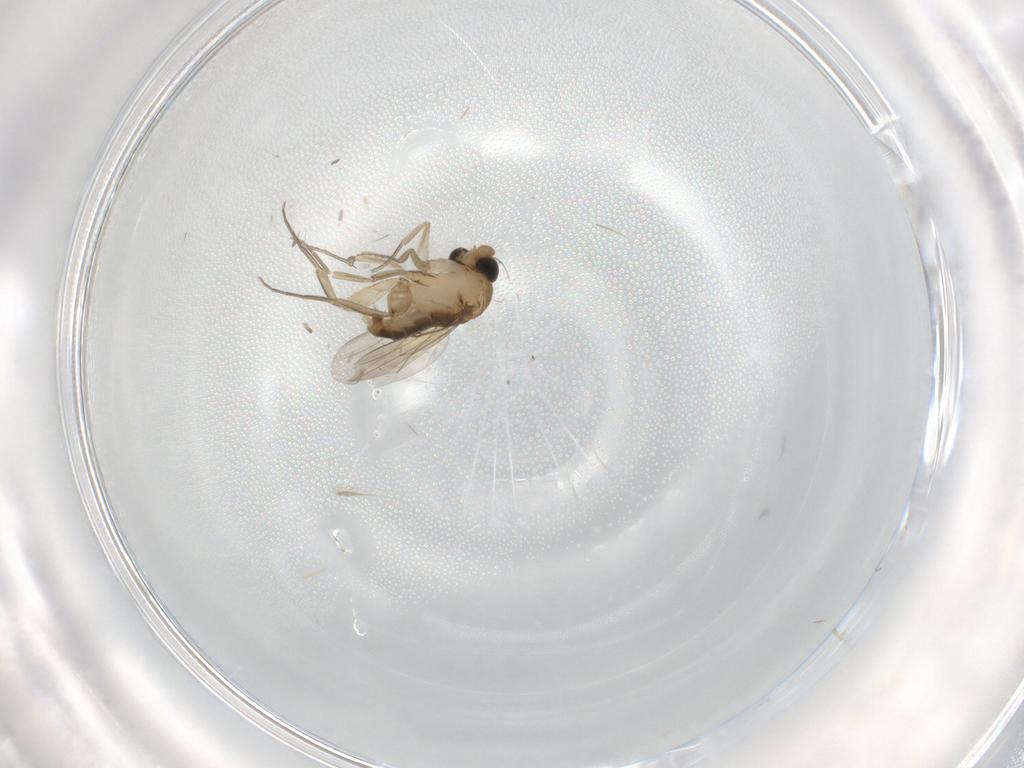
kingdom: Animalia
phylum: Arthropoda
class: Insecta
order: Diptera
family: Phoridae
